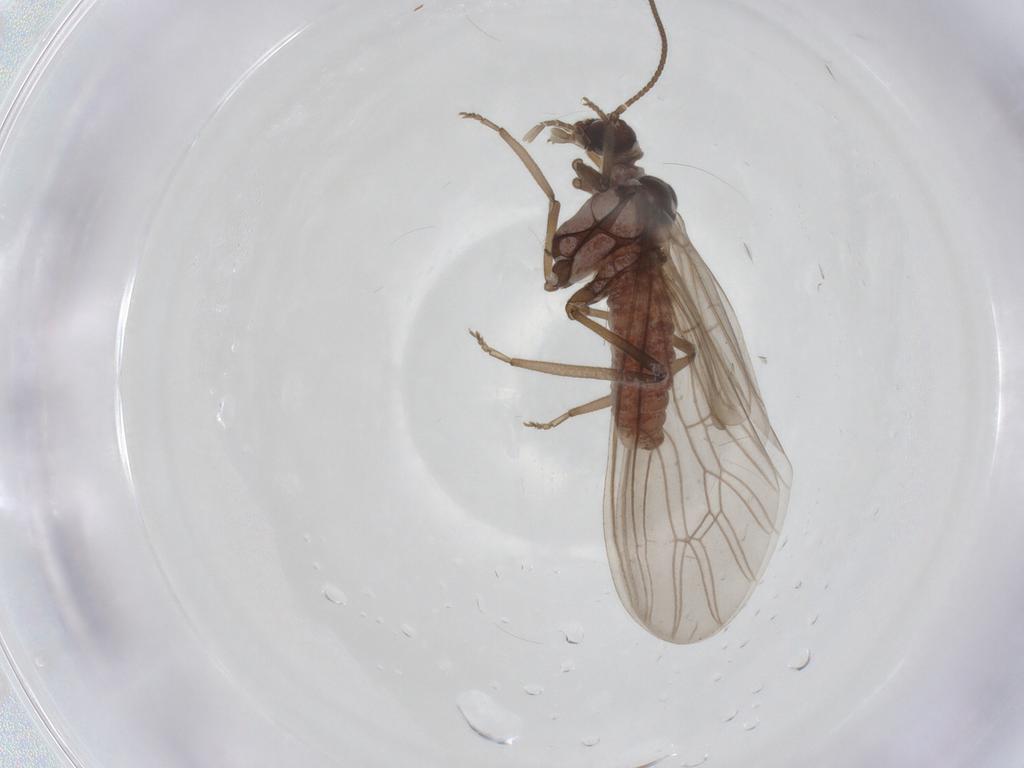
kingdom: Animalia
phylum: Arthropoda
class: Insecta
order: Neuroptera
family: Coniopterygidae
